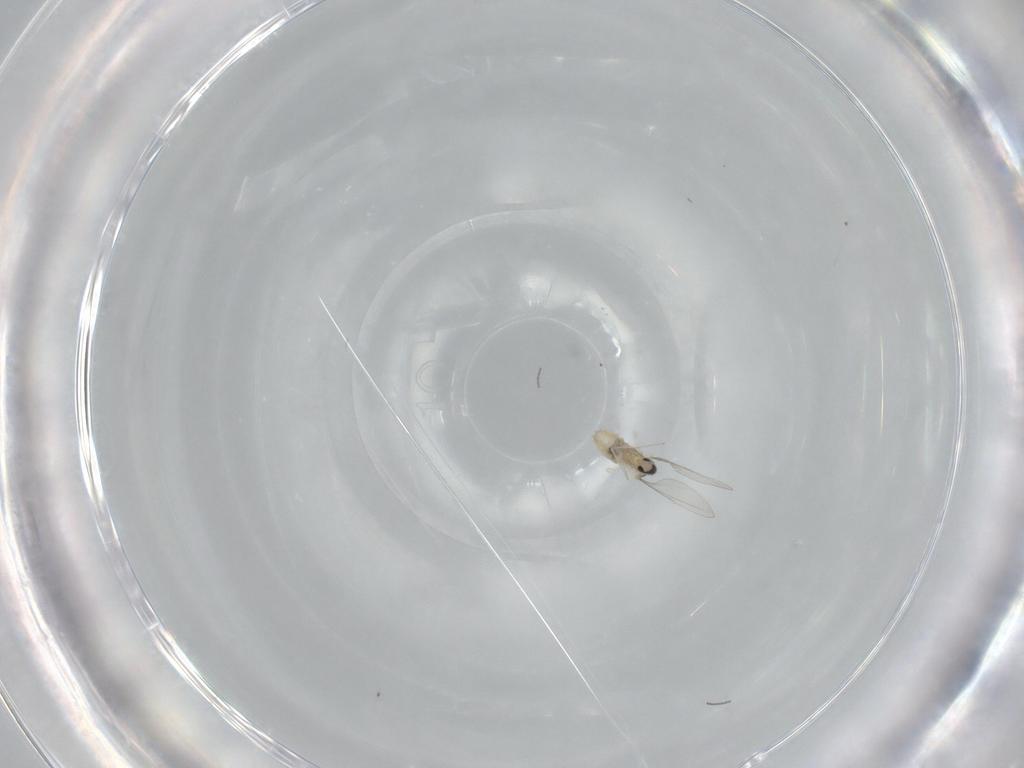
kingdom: Animalia
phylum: Arthropoda
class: Insecta
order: Diptera
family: Cecidomyiidae
